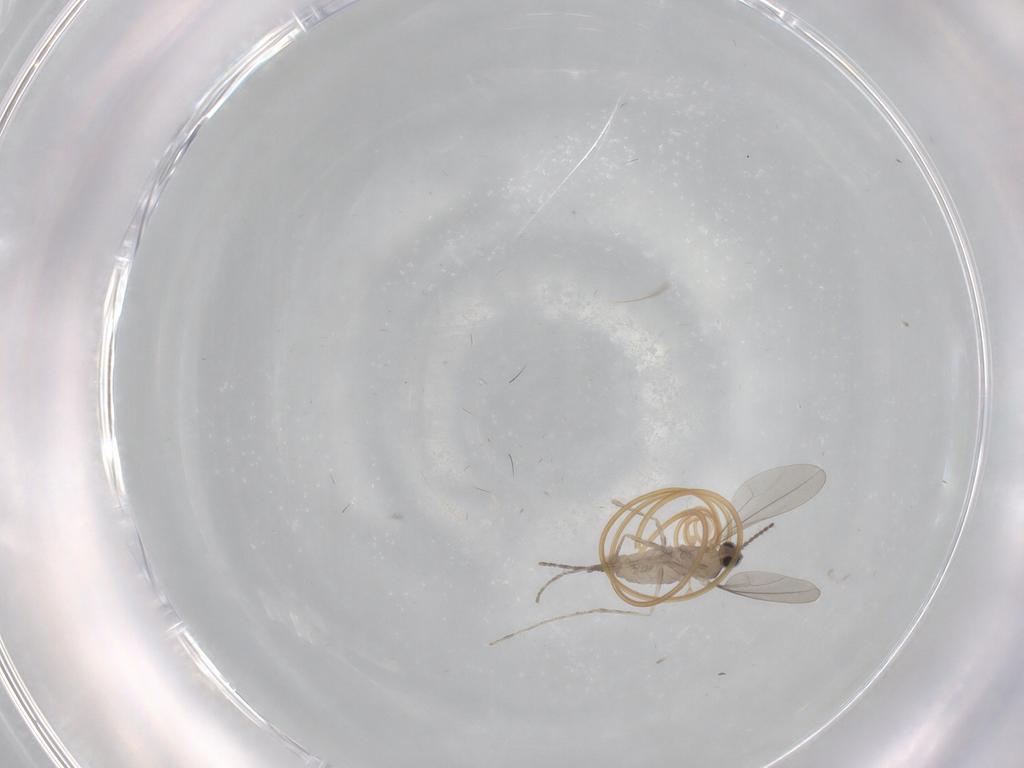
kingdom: Animalia
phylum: Arthropoda
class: Insecta
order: Diptera
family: Cecidomyiidae
